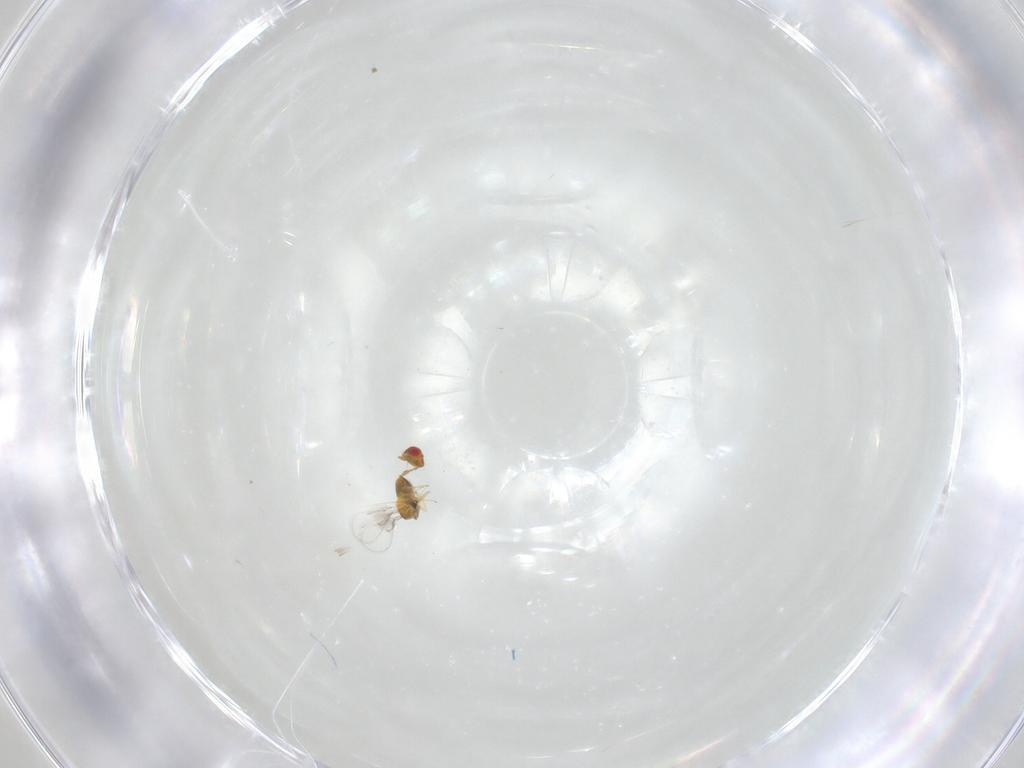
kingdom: Animalia
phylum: Arthropoda
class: Insecta
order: Hymenoptera
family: Trichogrammatidae
